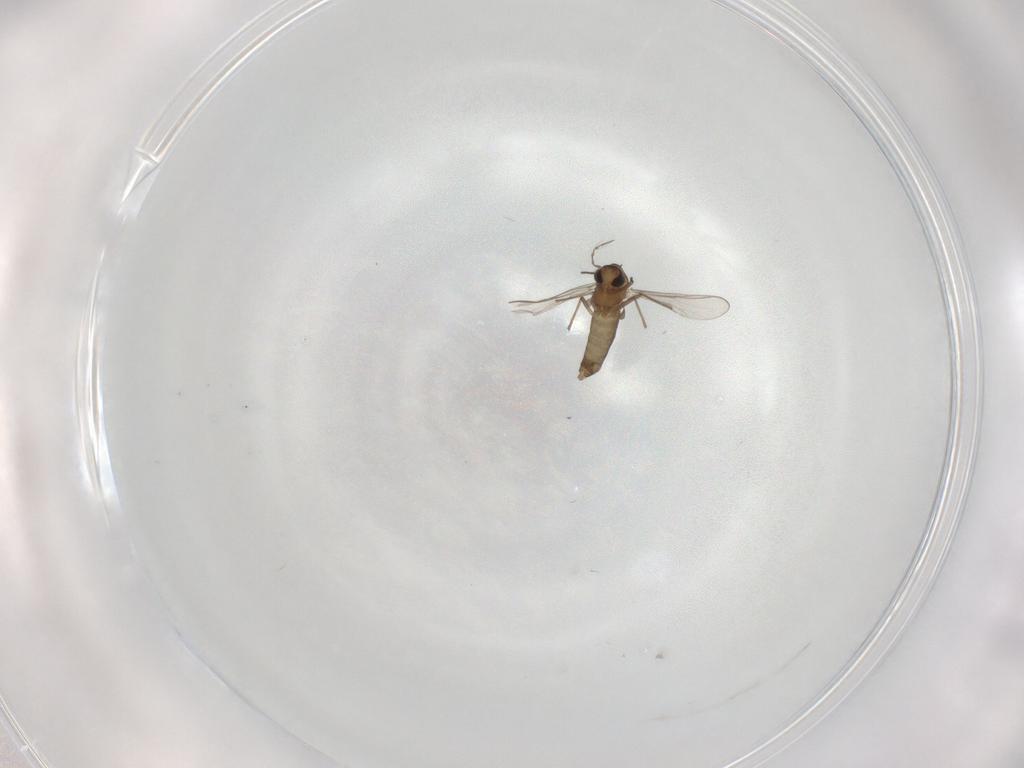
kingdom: Animalia
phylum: Arthropoda
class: Insecta
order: Diptera
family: Chironomidae
